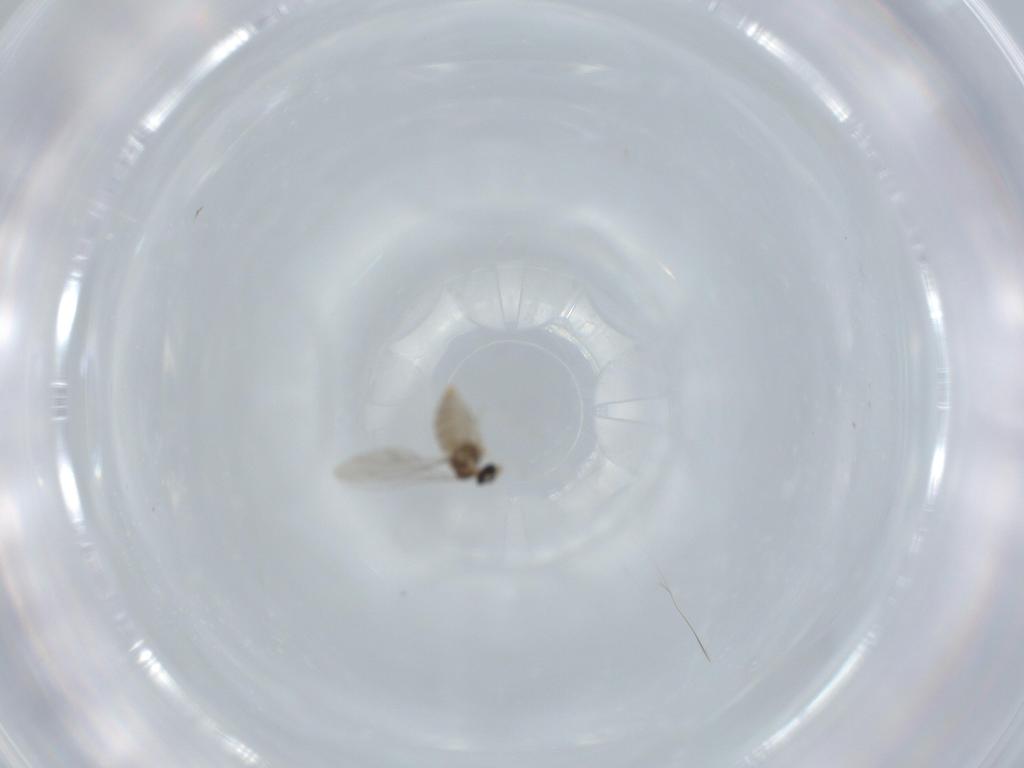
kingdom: Animalia
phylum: Arthropoda
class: Insecta
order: Diptera
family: Cecidomyiidae
